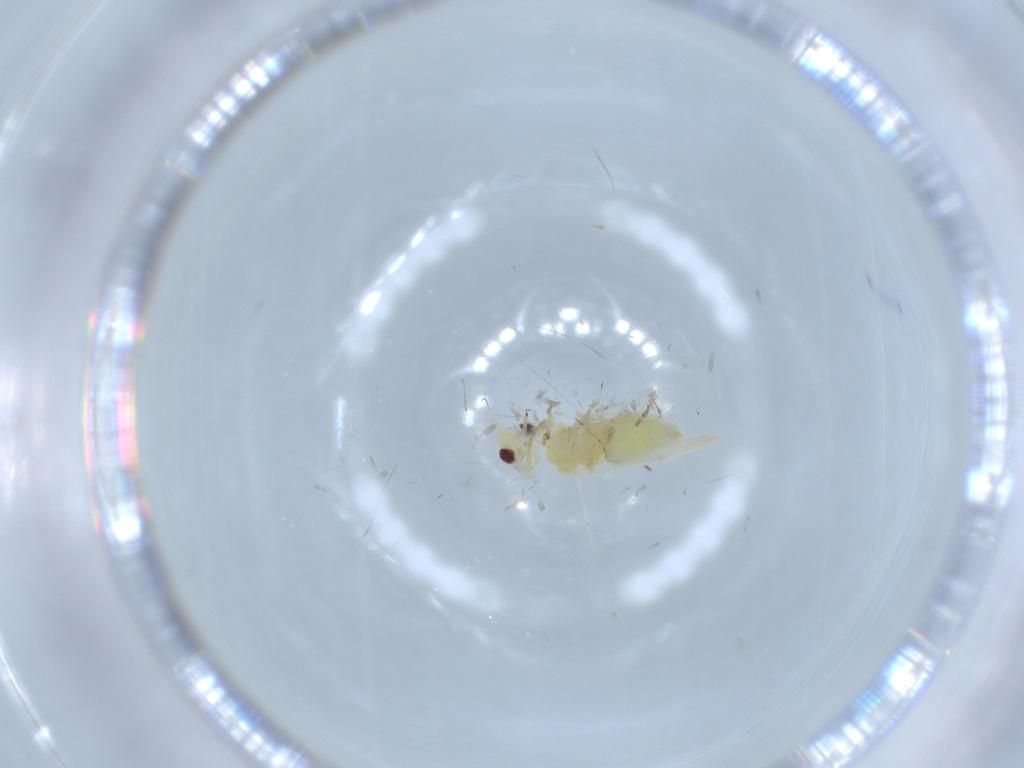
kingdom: Animalia
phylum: Arthropoda
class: Insecta
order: Hemiptera
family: Aleyrodidae
